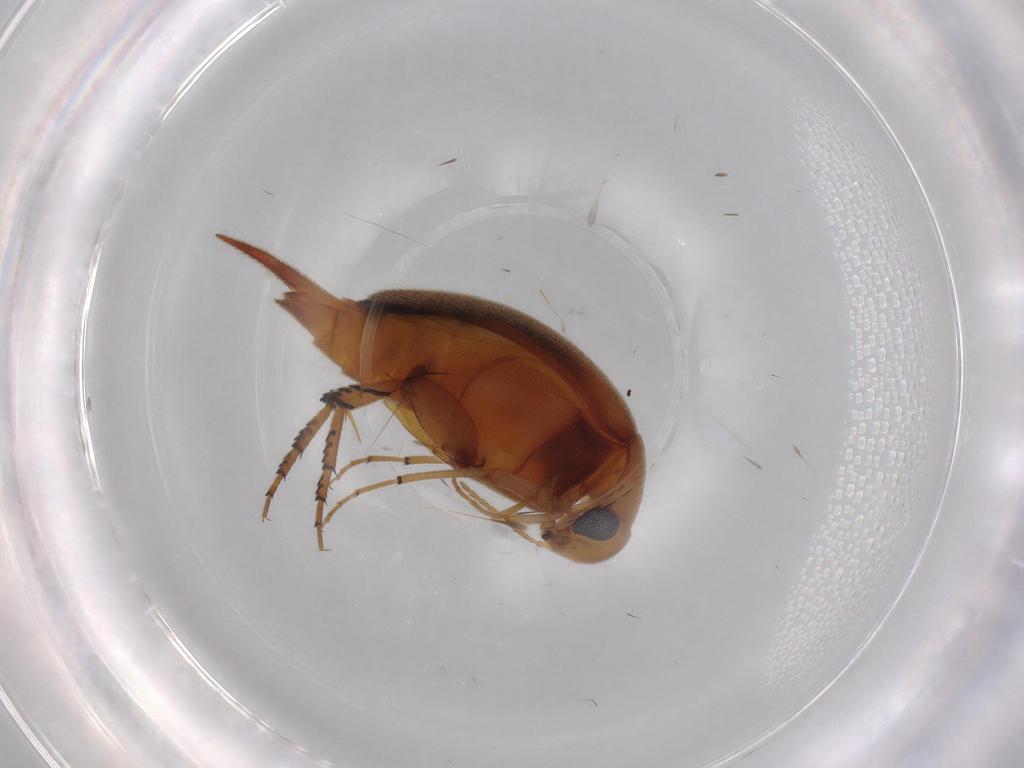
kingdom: Animalia
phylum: Arthropoda
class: Insecta
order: Coleoptera
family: Mordellidae
